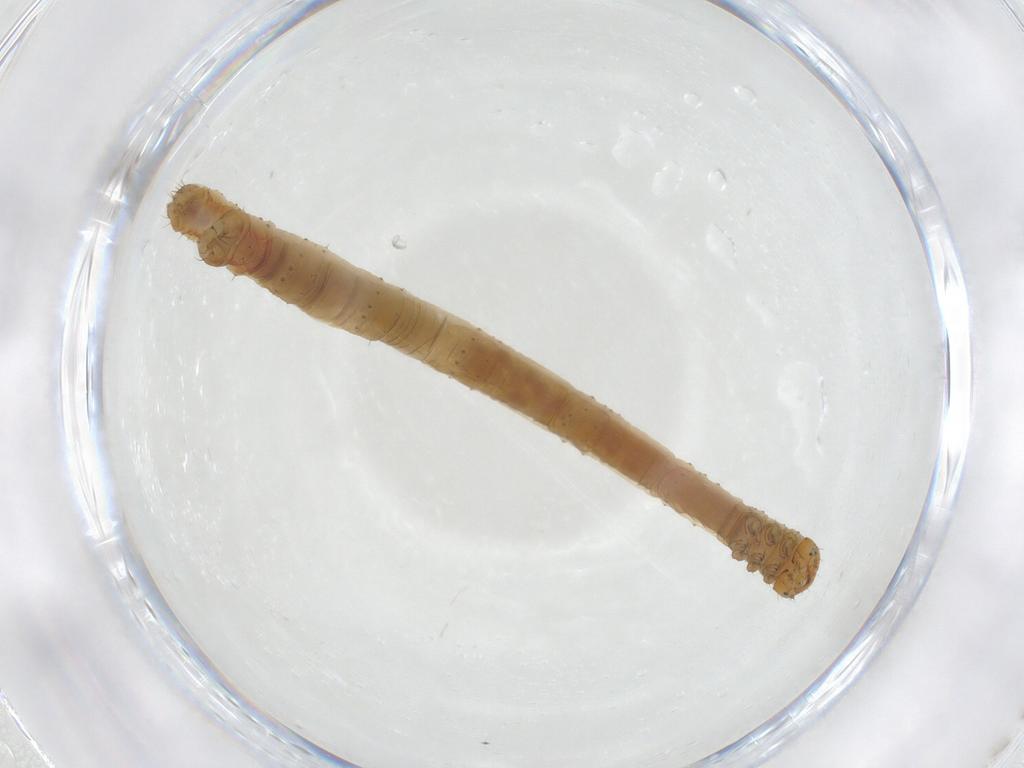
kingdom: Animalia
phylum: Arthropoda
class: Insecta
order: Lepidoptera
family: Geometridae
